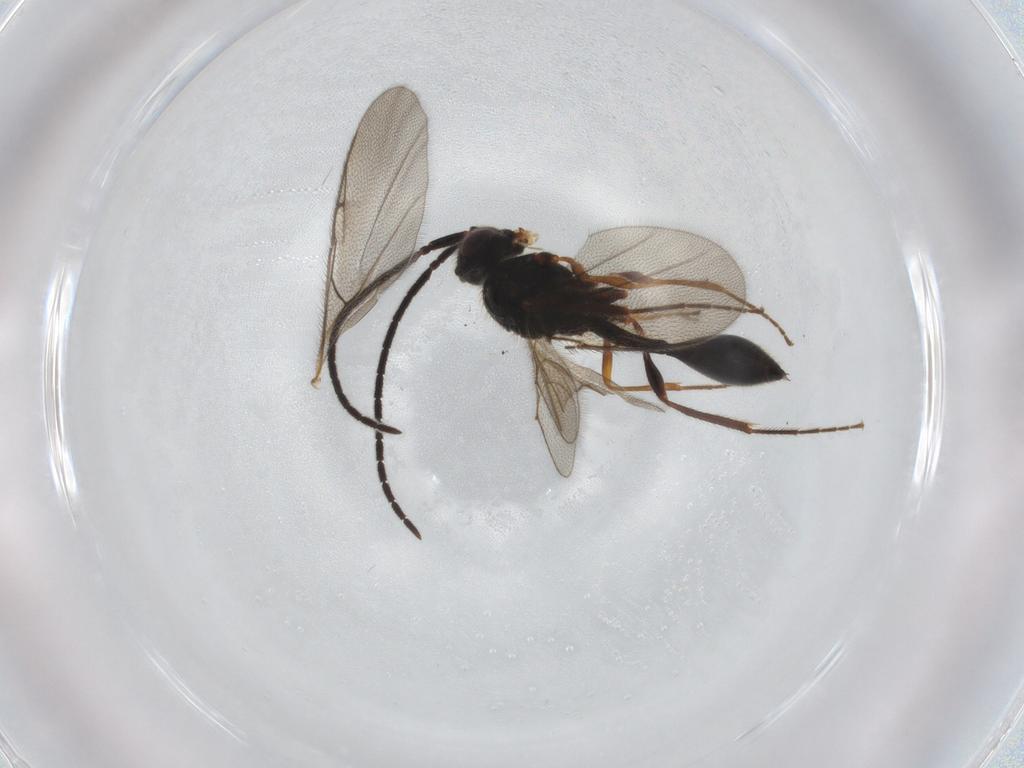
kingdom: Animalia
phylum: Arthropoda
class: Insecta
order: Hymenoptera
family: Diapriidae
